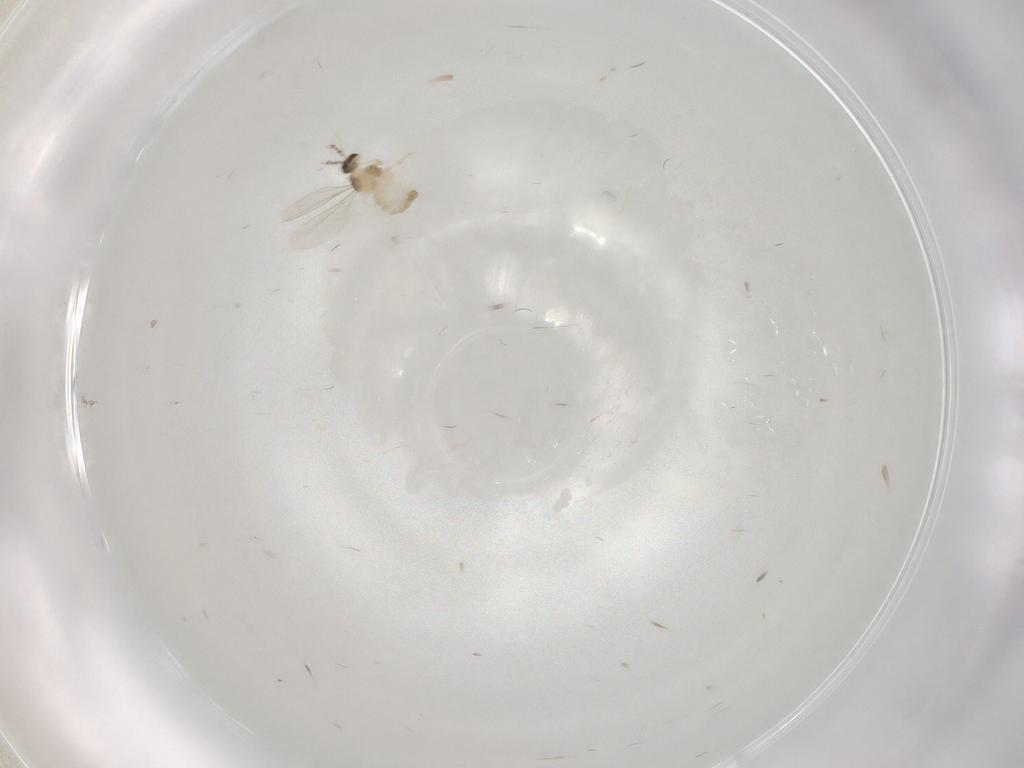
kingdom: Animalia
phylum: Arthropoda
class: Insecta
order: Diptera
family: Cecidomyiidae
